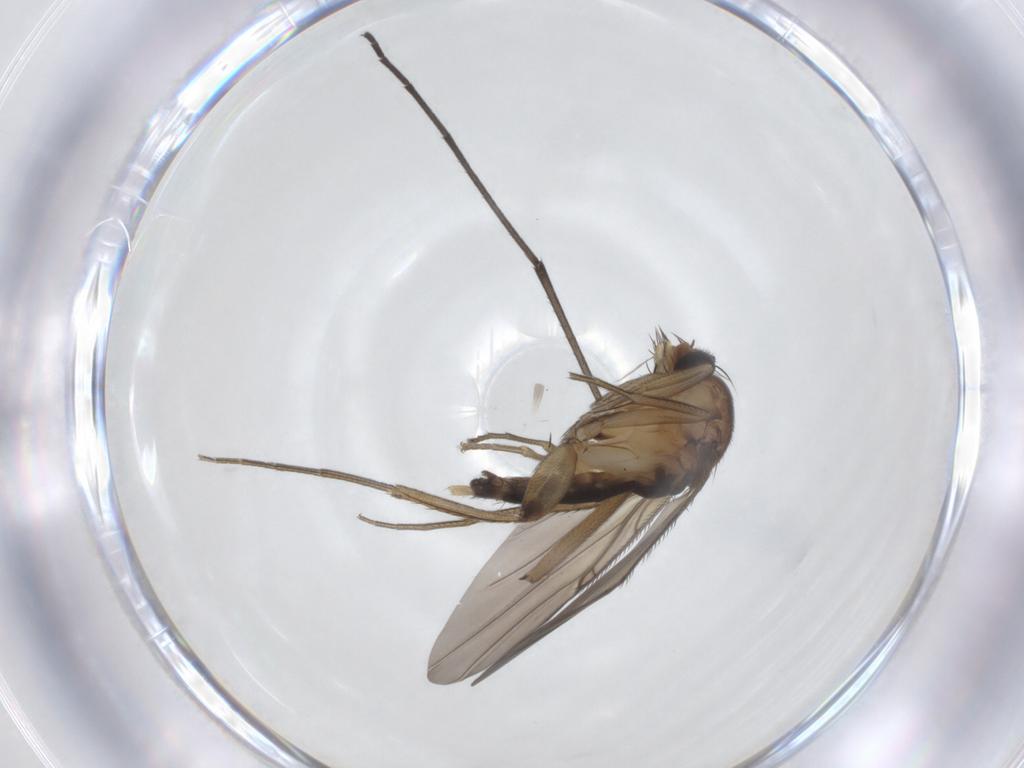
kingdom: Animalia
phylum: Arthropoda
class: Insecta
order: Diptera
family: Phoridae
